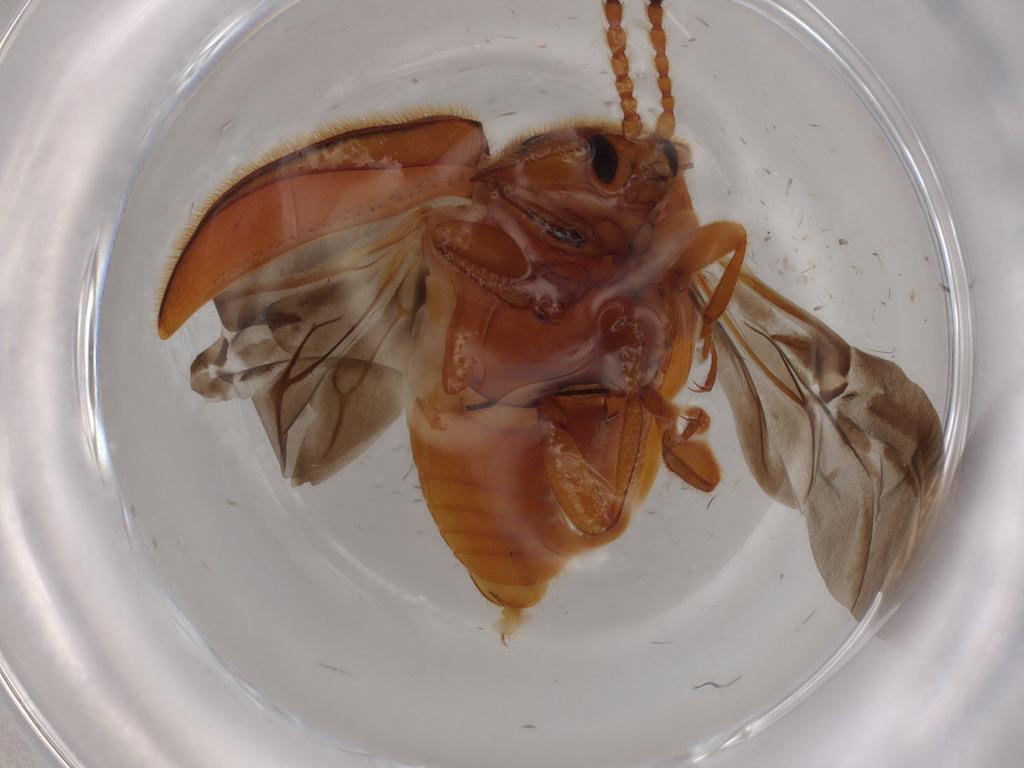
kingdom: Animalia
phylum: Arthropoda
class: Insecta
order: Coleoptera
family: Endomychidae
